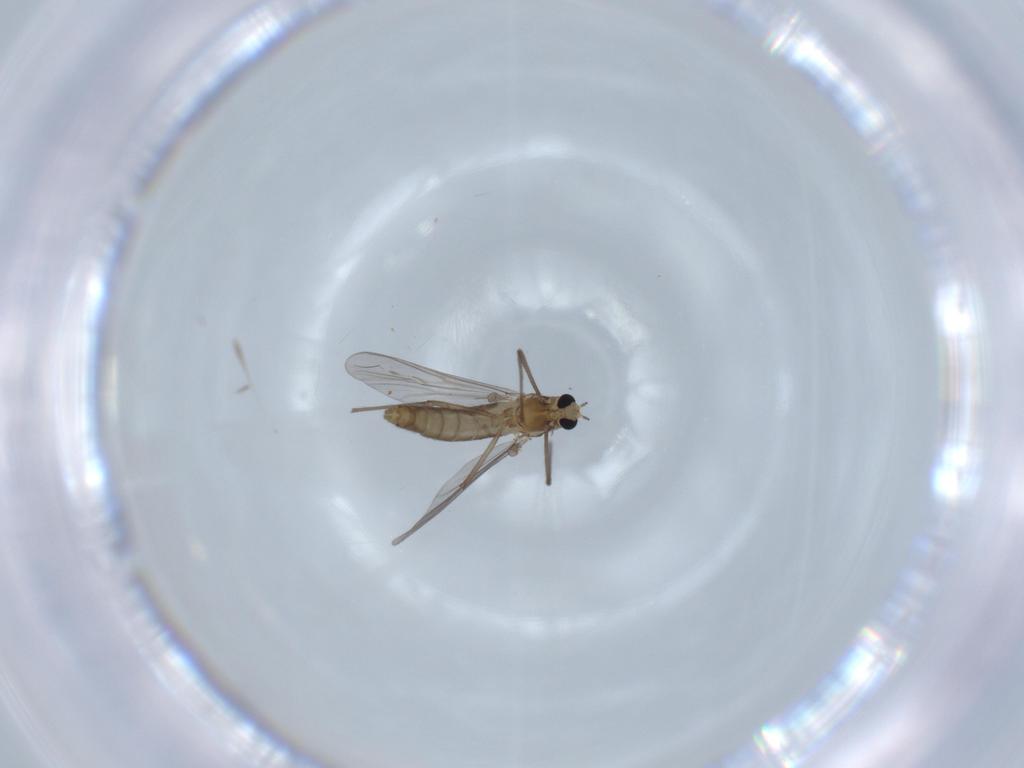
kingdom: Animalia
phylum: Arthropoda
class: Insecta
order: Diptera
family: Chironomidae
